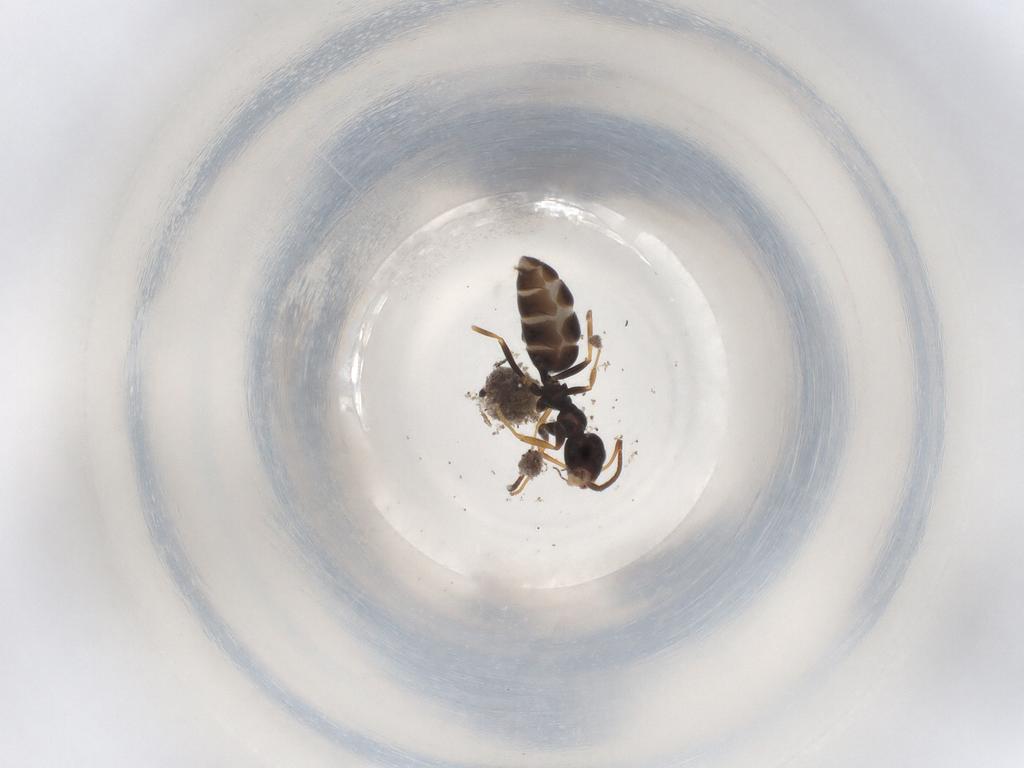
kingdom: Animalia
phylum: Arthropoda
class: Insecta
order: Hymenoptera
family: Formicidae
